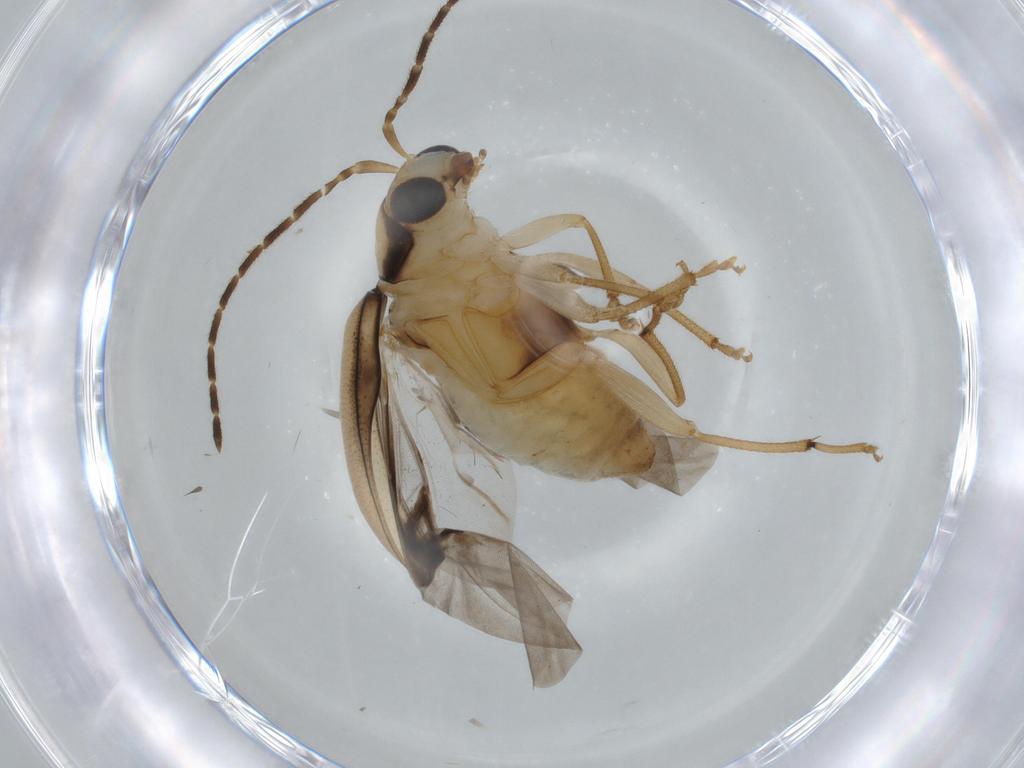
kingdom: Animalia
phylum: Arthropoda
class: Insecta
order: Coleoptera
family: Chrysomelidae
